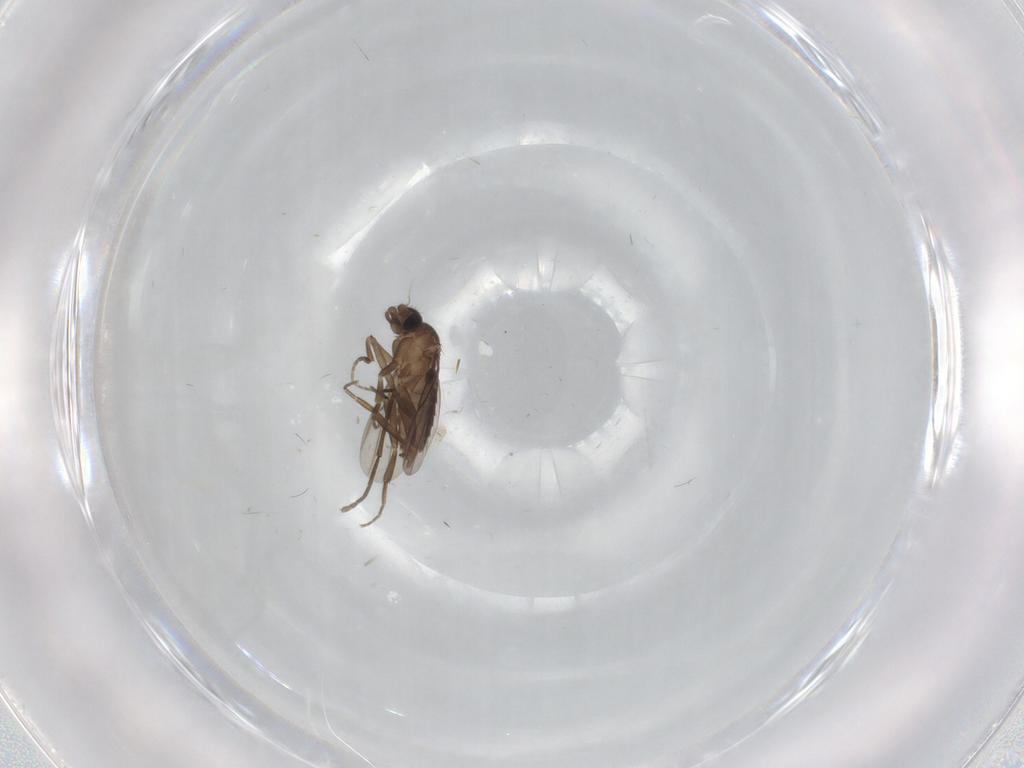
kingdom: Animalia
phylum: Arthropoda
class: Insecta
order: Diptera
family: Phoridae
